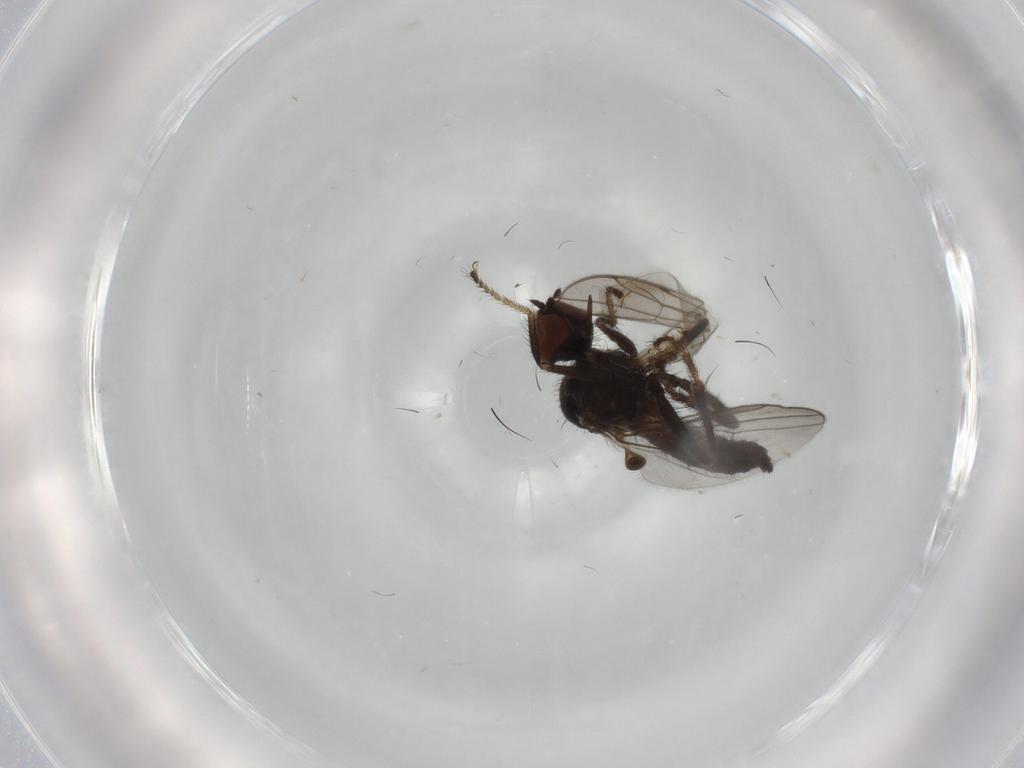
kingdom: Animalia
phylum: Arthropoda
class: Insecta
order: Diptera
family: Hybotidae
